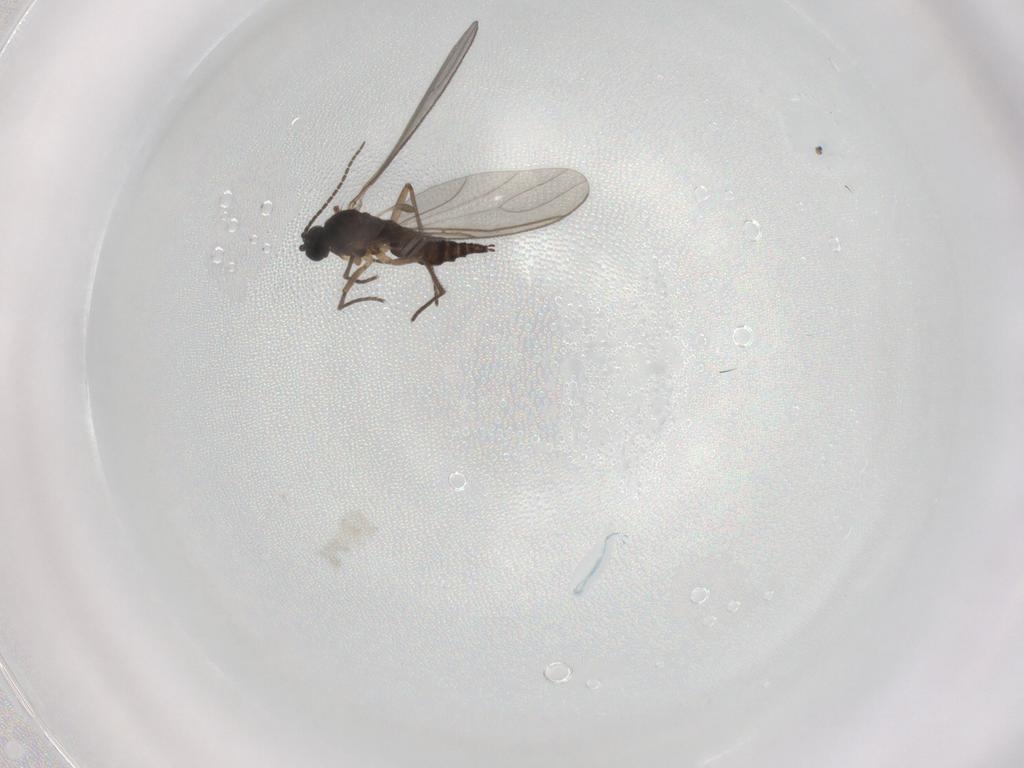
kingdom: Animalia
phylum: Arthropoda
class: Insecta
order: Diptera
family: Sciaridae
